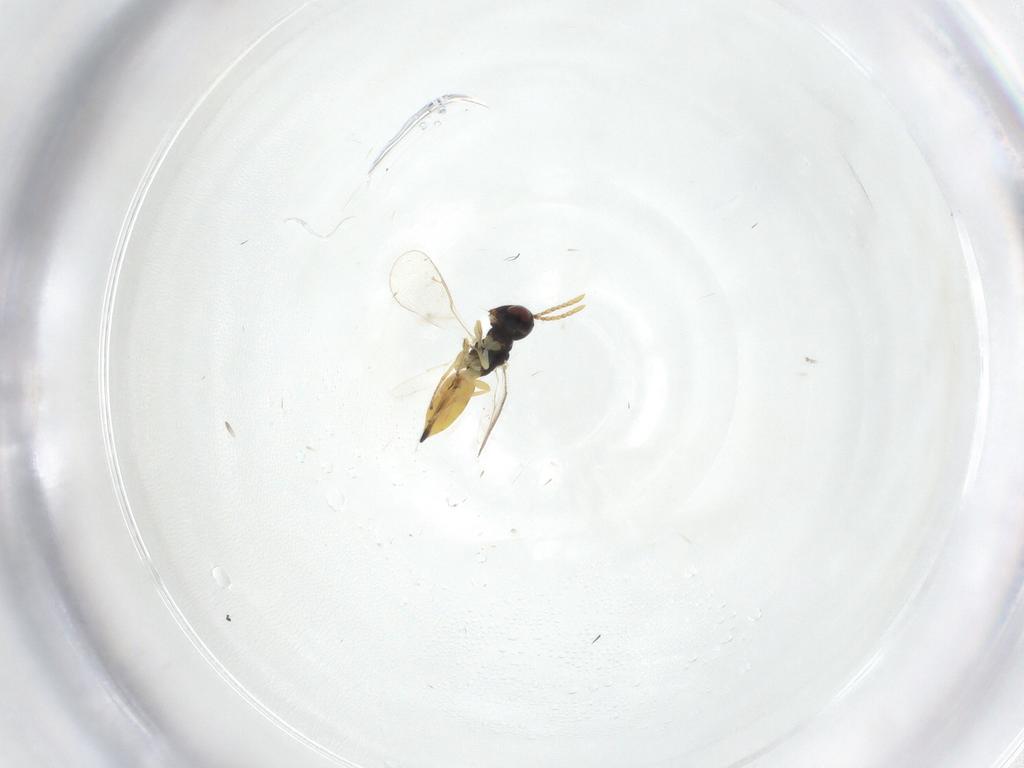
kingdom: Animalia
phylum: Arthropoda
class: Insecta
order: Hymenoptera
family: Pteromalidae
